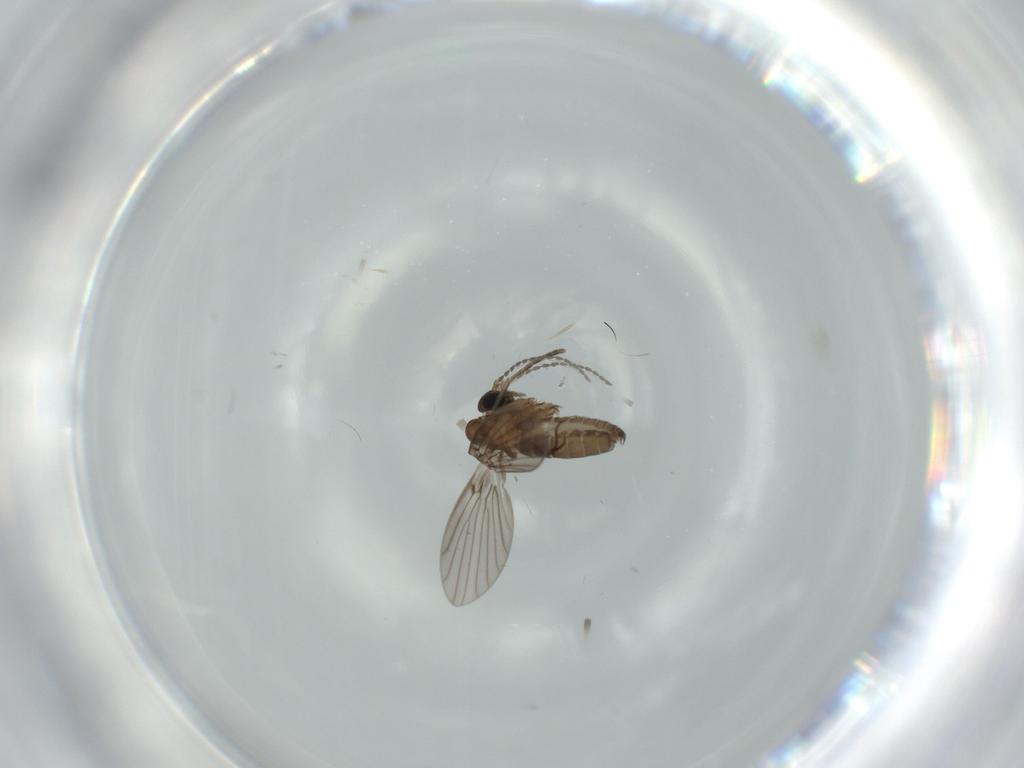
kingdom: Animalia
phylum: Arthropoda
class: Insecta
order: Diptera
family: Psychodidae
